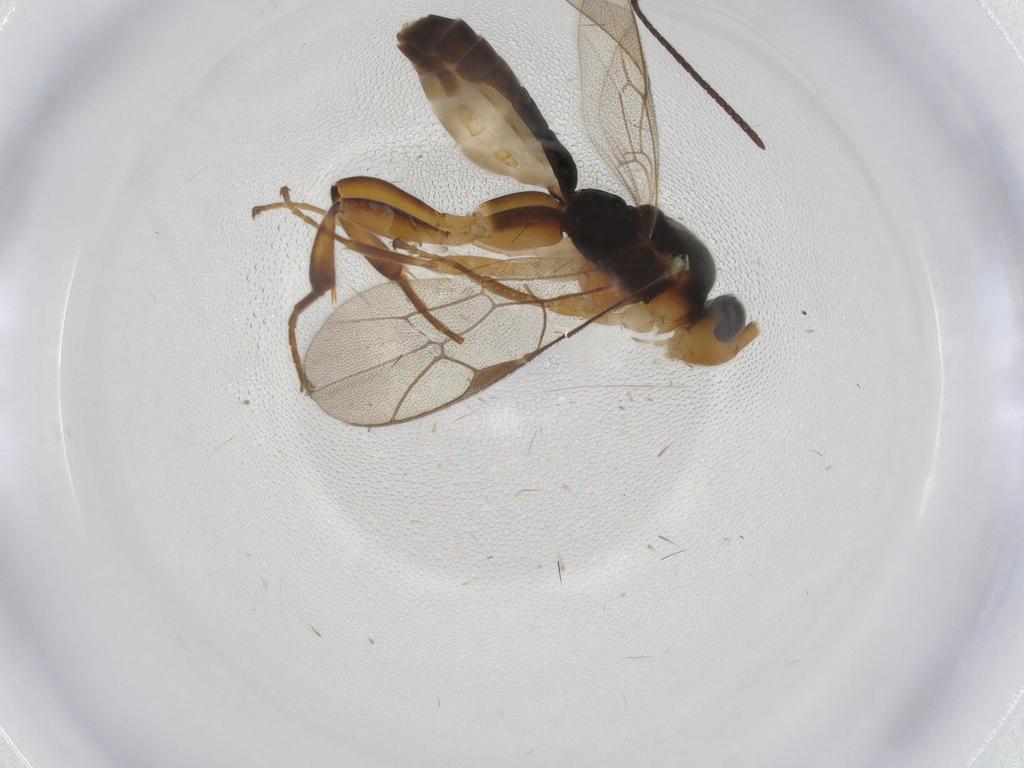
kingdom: Animalia
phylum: Arthropoda
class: Insecta
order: Hymenoptera
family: Ichneumonidae
